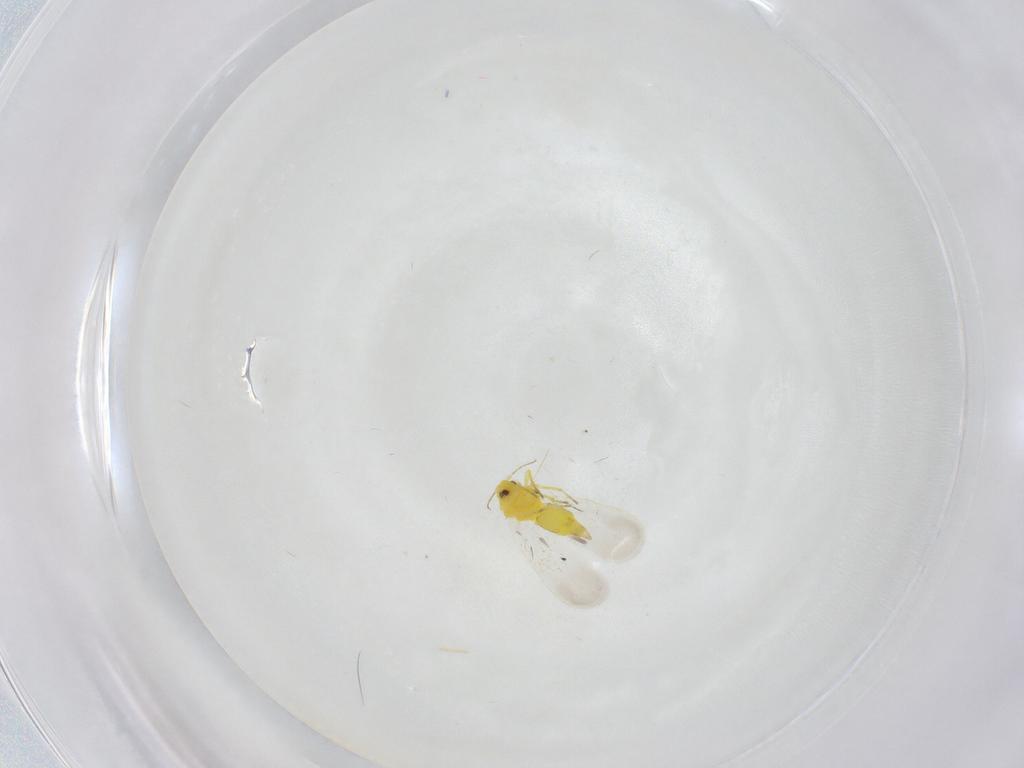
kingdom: Animalia
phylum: Arthropoda
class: Insecta
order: Hemiptera
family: Aleyrodidae
